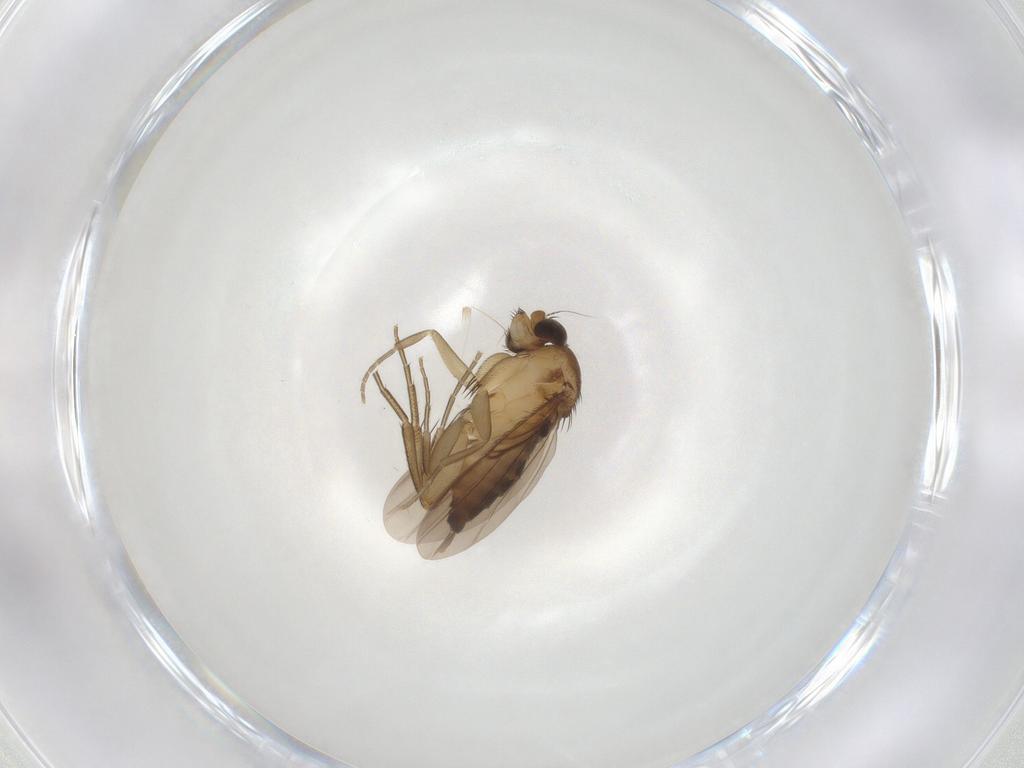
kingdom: Animalia
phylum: Arthropoda
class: Insecta
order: Diptera
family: Phoridae
